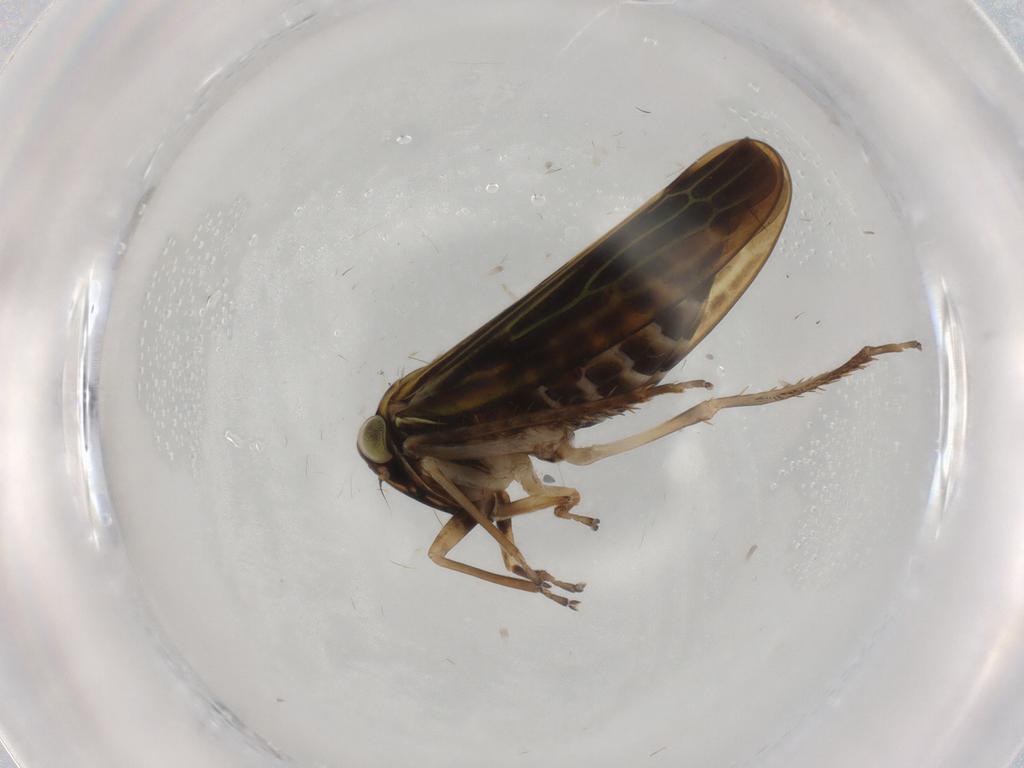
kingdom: Animalia
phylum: Arthropoda
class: Insecta
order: Hemiptera
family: Cicadellidae
